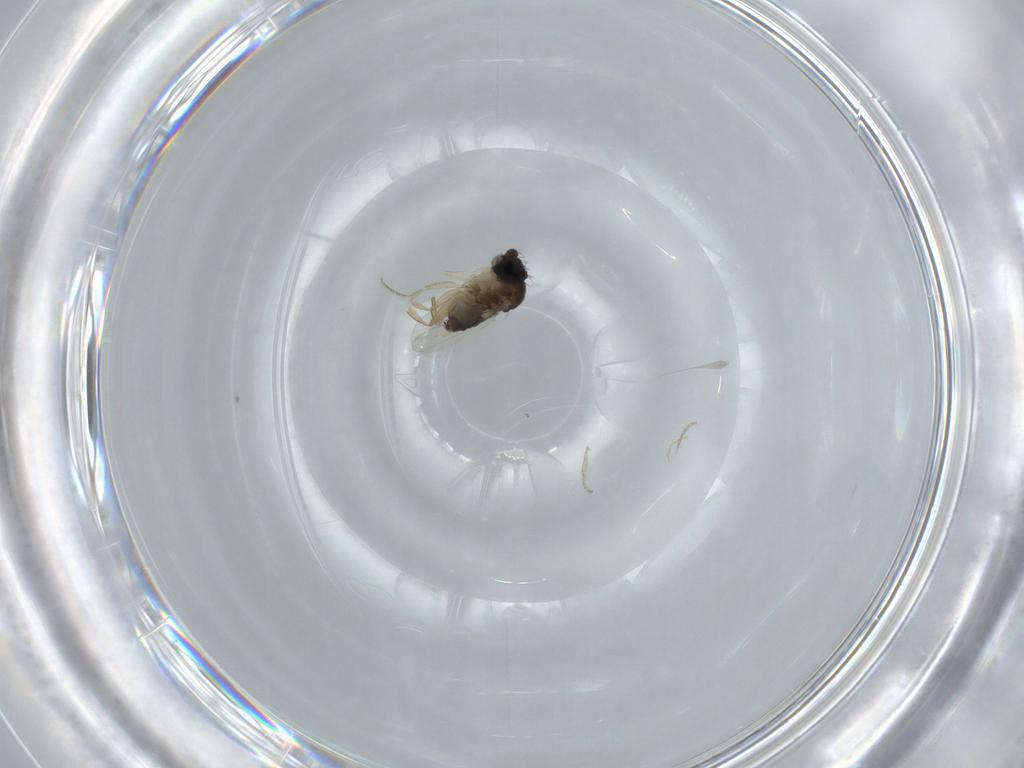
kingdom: Animalia
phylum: Arthropoda
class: Insecta
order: Diptera
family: Phoridae
